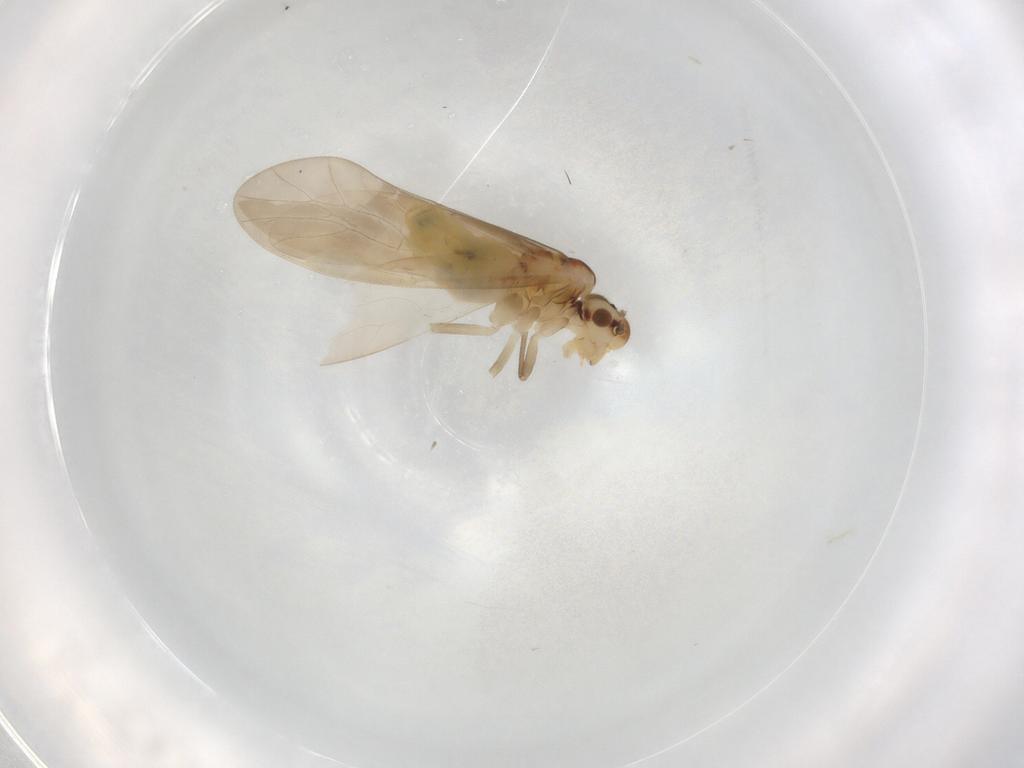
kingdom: Animalia
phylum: Arthropoda
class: Insecta
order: Psocodea
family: Caeciliusidae
